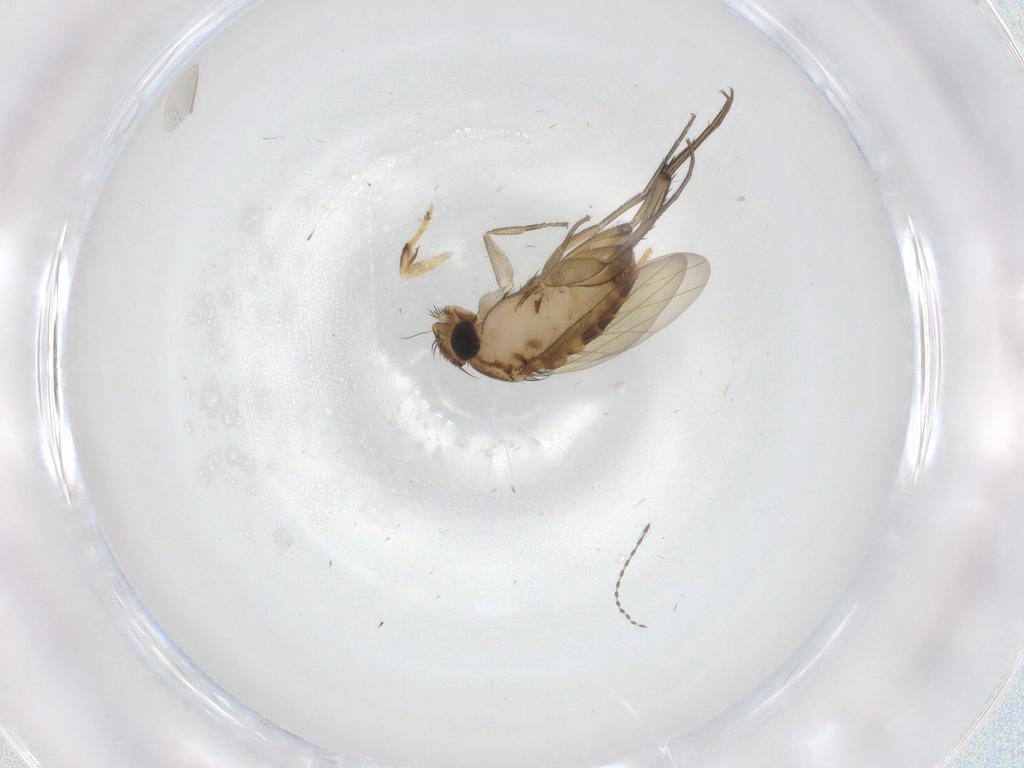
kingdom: Animalia
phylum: Arthropoda
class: Insecta
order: Diptera
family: Phoridae
